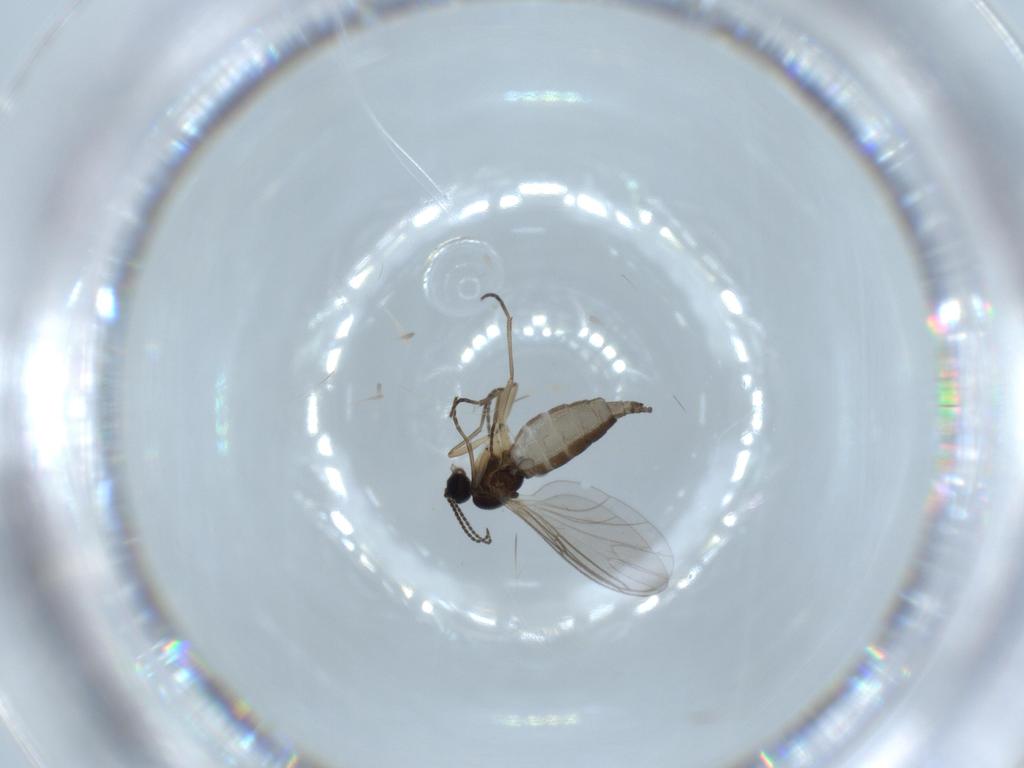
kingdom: Animalia
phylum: Arthropoda
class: Insecta
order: Diptera
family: Sciaridae
